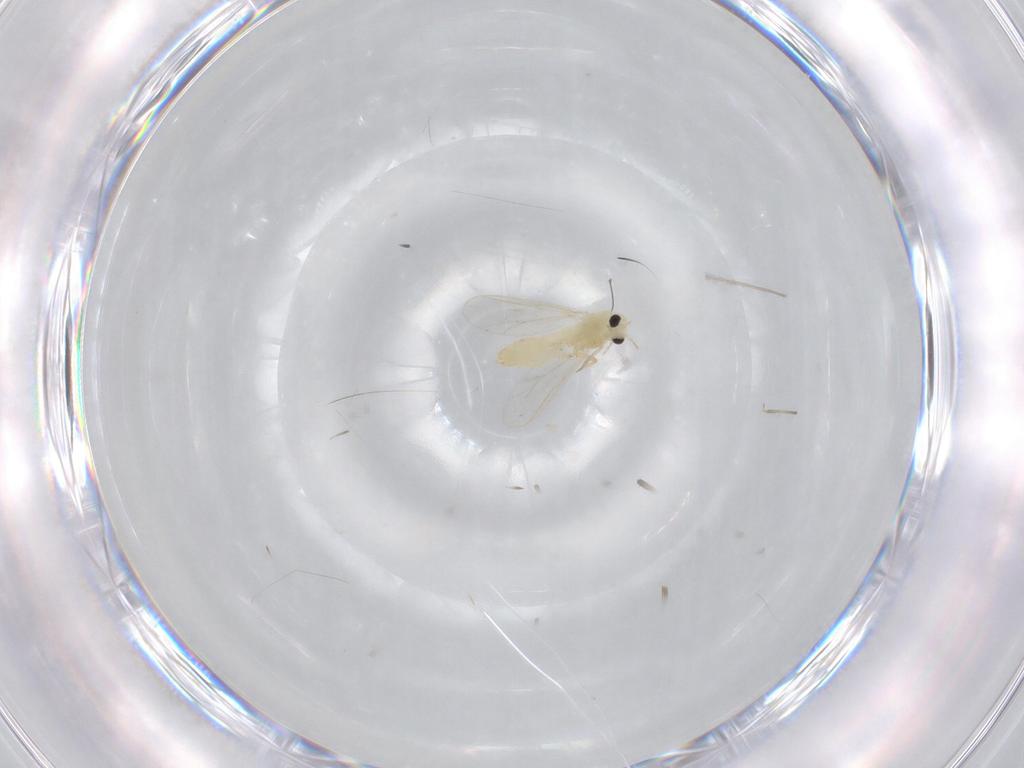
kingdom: Animalia
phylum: Arthropoda
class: Insecta
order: Diptera
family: Chironomidae
